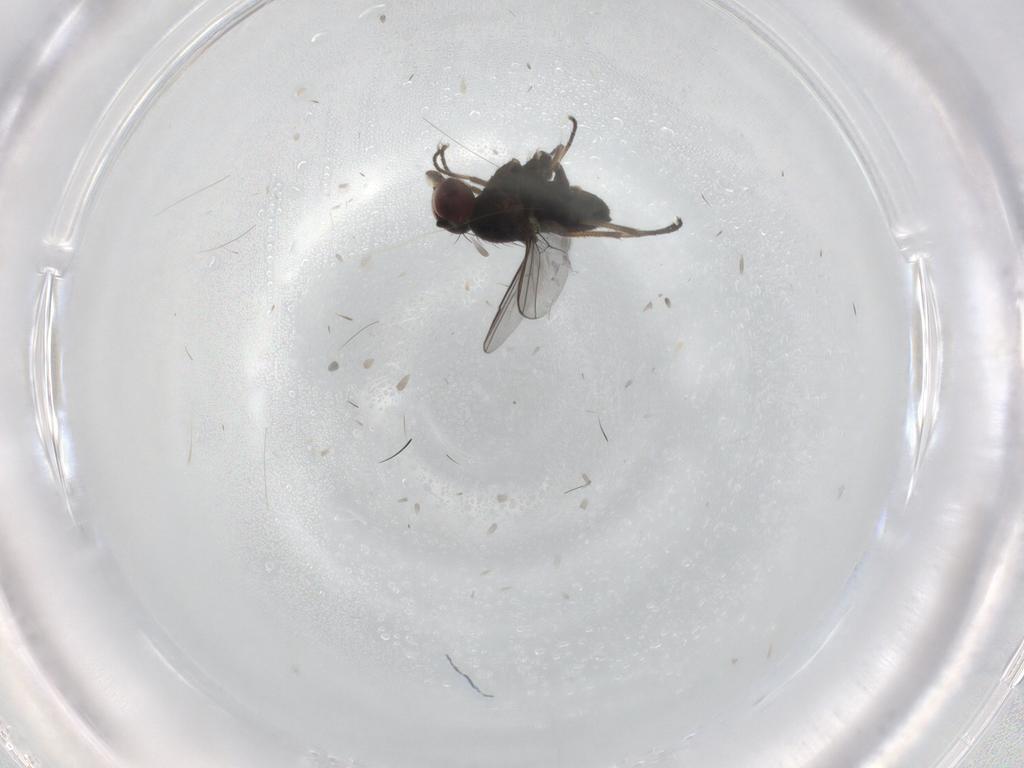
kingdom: Animalia
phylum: Arthropoda
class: Insecta
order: Diptera
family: Dolichopodidae
